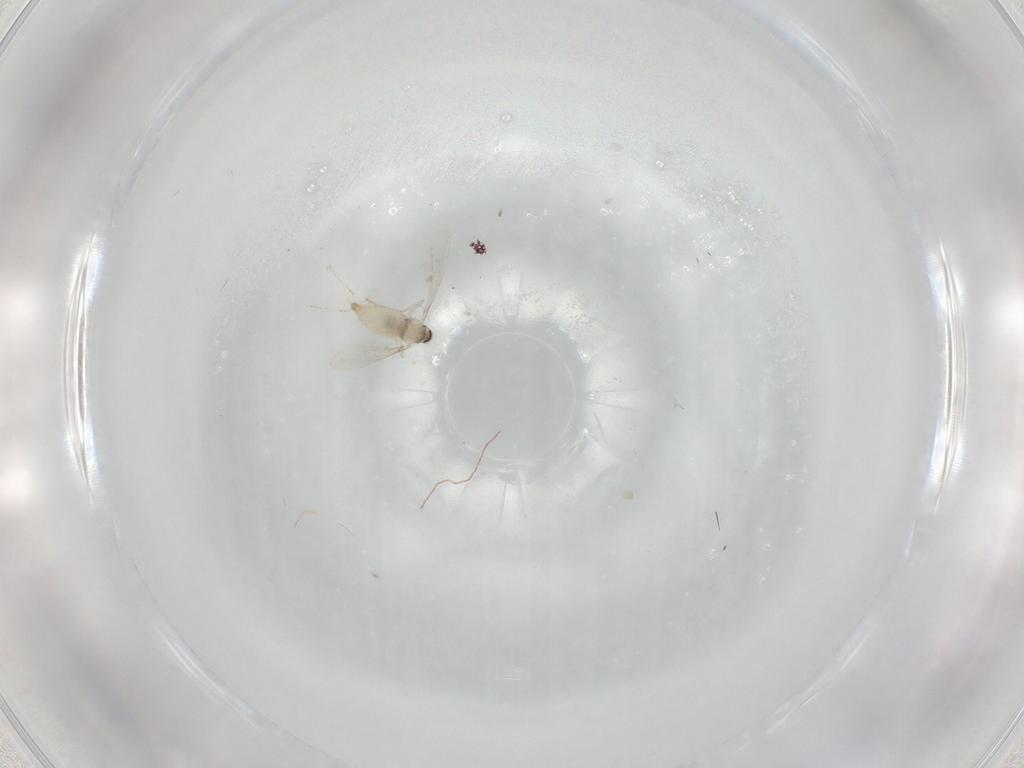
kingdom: Animalia
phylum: Arthropoda
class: Insecta
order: Diptera
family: Cecidomyiidae
